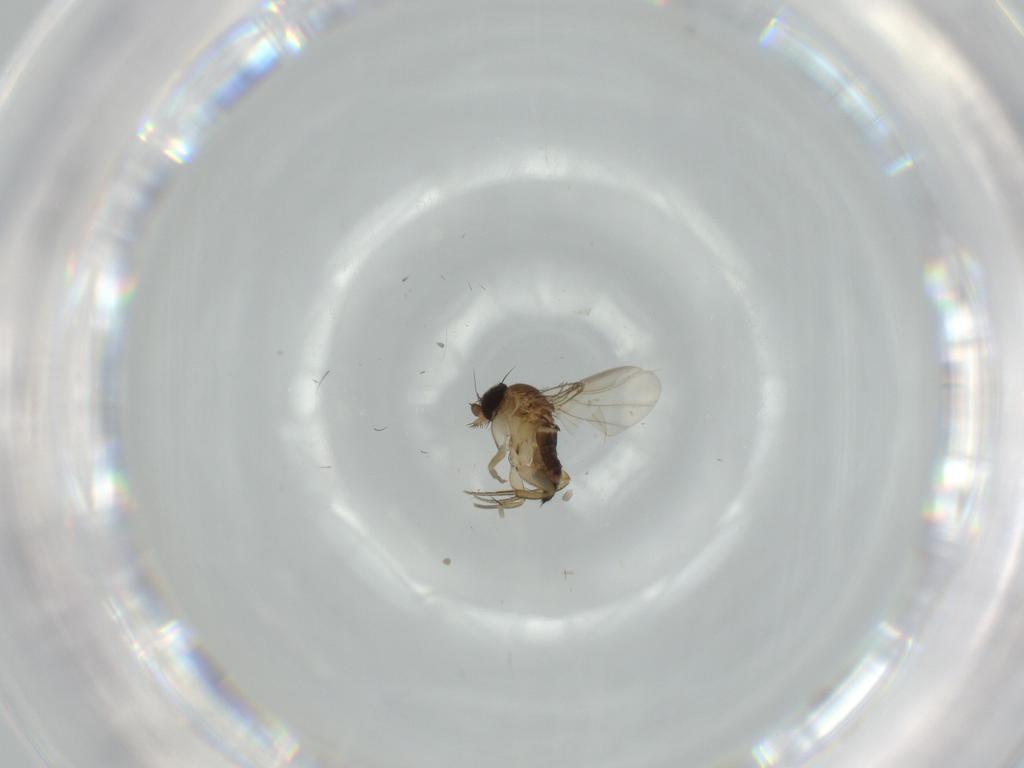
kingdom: Animalia
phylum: Arthropoda
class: Insecta
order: Diptera
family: Phoridae
